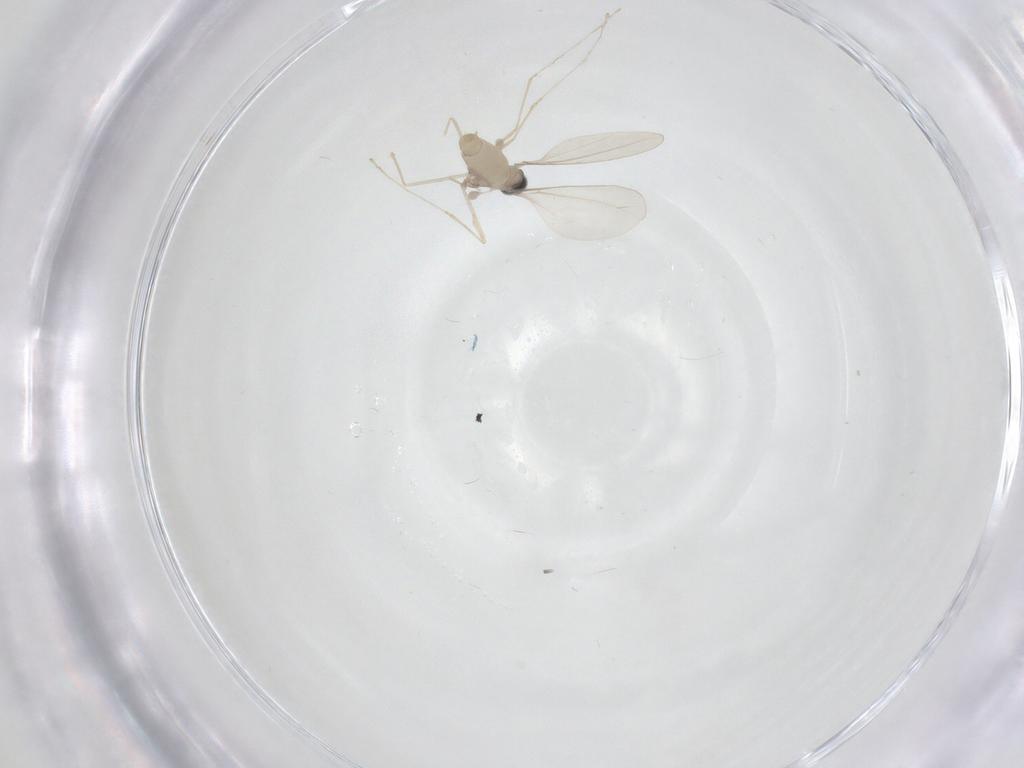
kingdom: Animalia
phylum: Arthropoda
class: Insecta
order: Diptera
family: Cecidomyiidae
